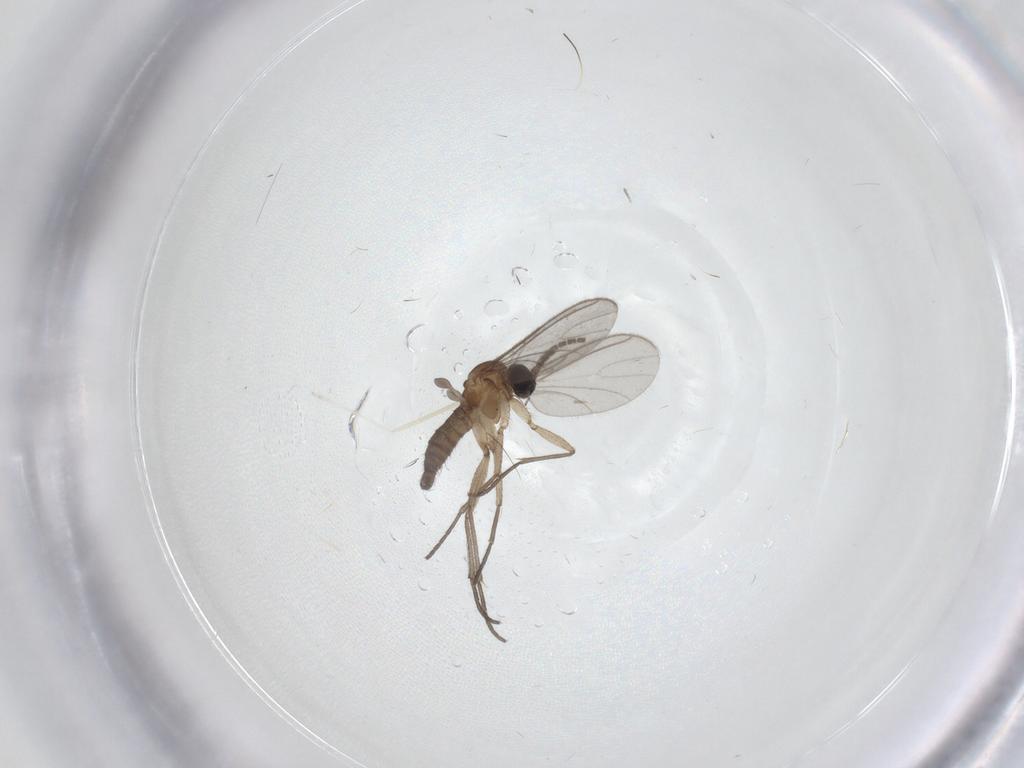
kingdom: Animalia
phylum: Arthropoda
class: Insecta
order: Diptera
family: Sciaridae
